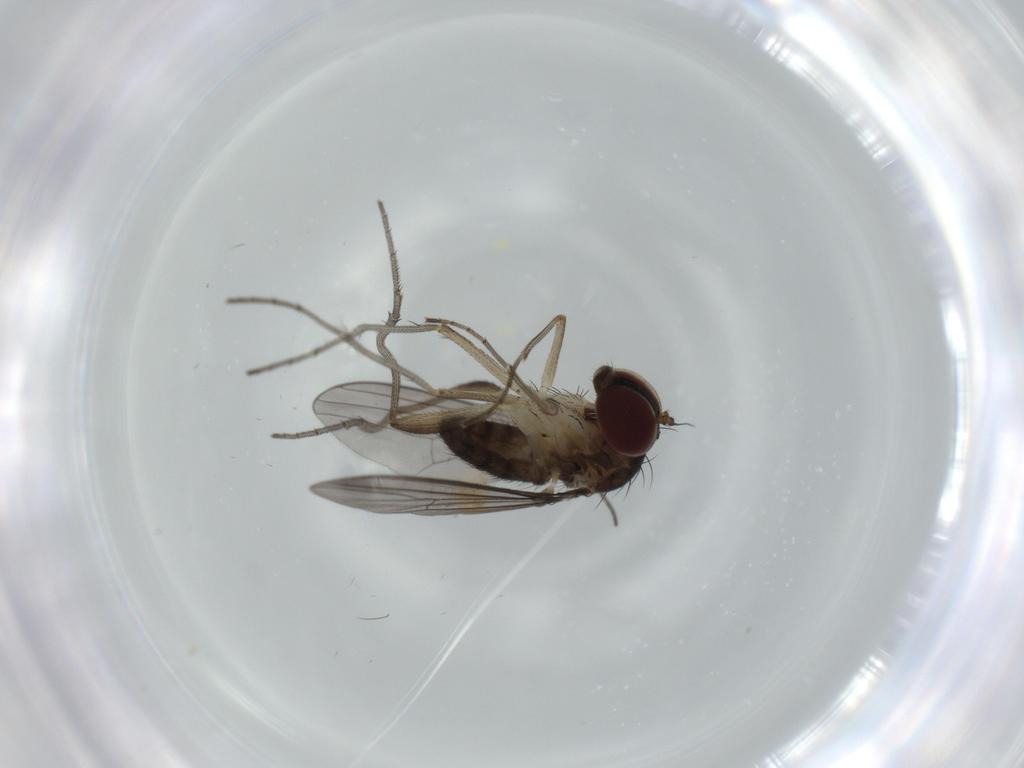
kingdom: Animalia
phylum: Arthropoda
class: Insecta
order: Diptera
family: Dolichopodidae
